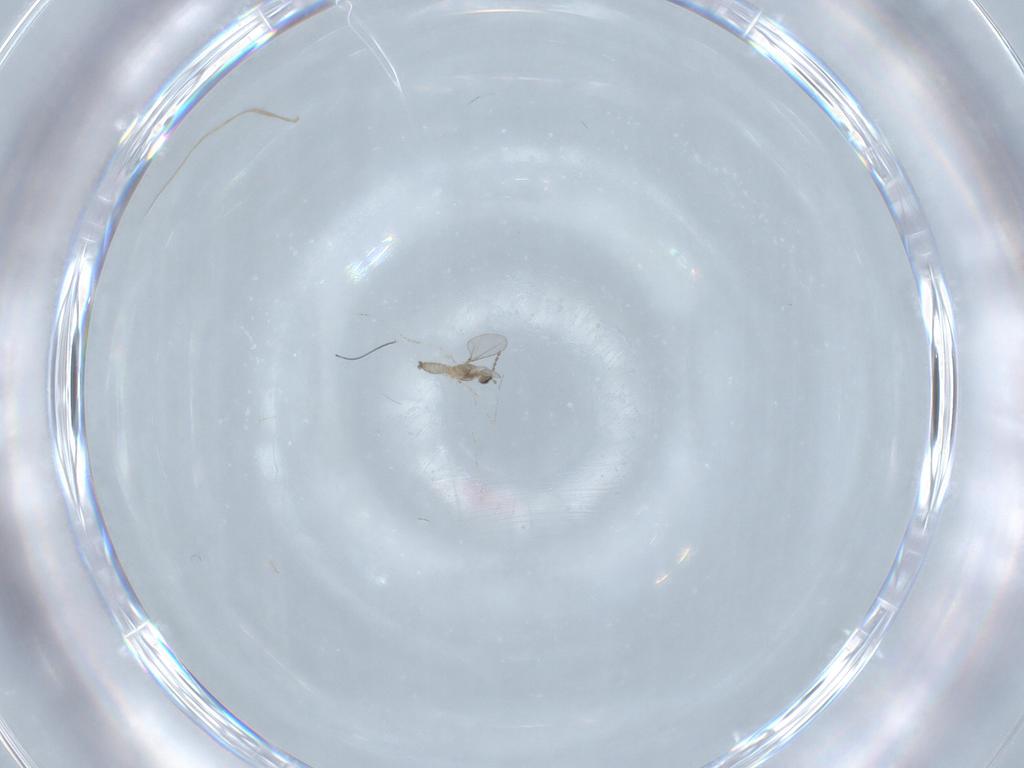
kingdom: Animalia
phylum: Arthropoda
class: Insecta
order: Diptera
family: Cecidomyiidae
